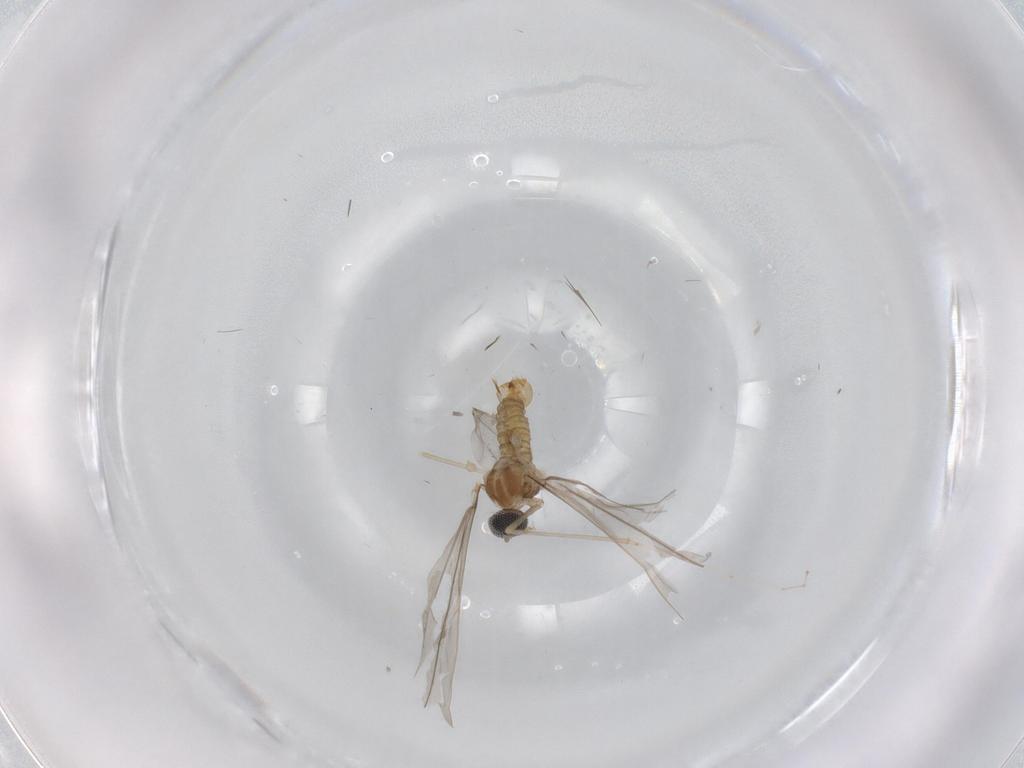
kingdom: Animalia
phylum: Arthropoda
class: Insecta
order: Diptera
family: Cecidomyiidae
